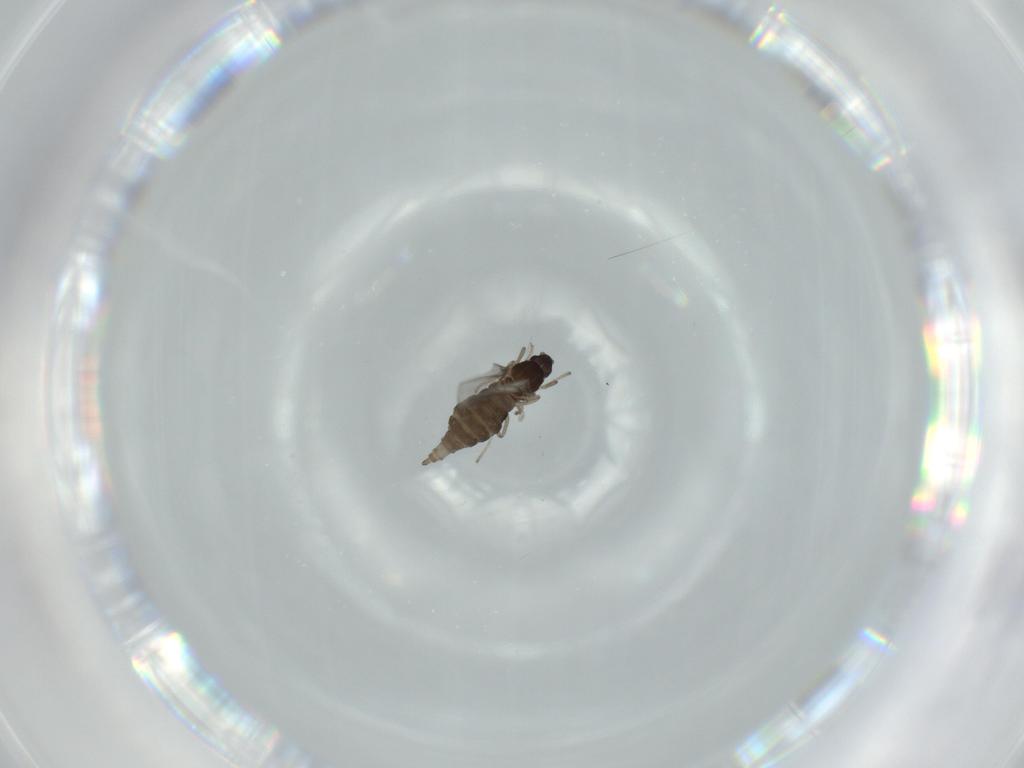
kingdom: Animalia
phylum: Arthropoda
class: Insecta
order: Diptera
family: Cecidomyiidae
